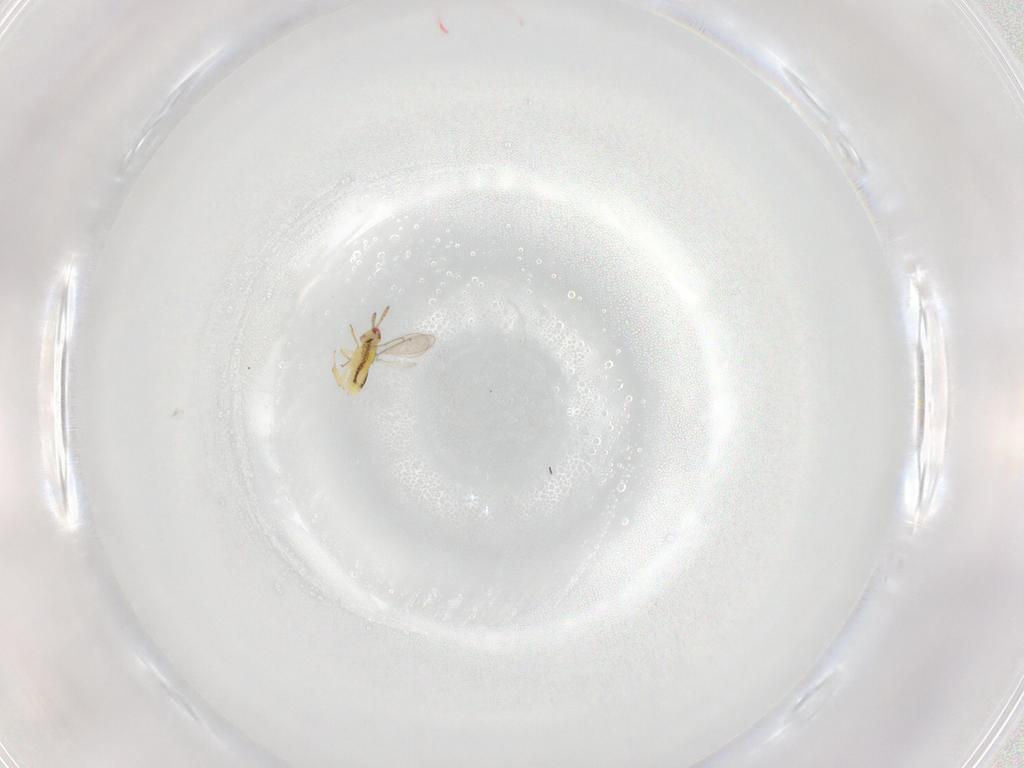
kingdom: Animalia
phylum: Arthropoda
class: Insecta
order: Hymenoptera
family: Aphelinidae
